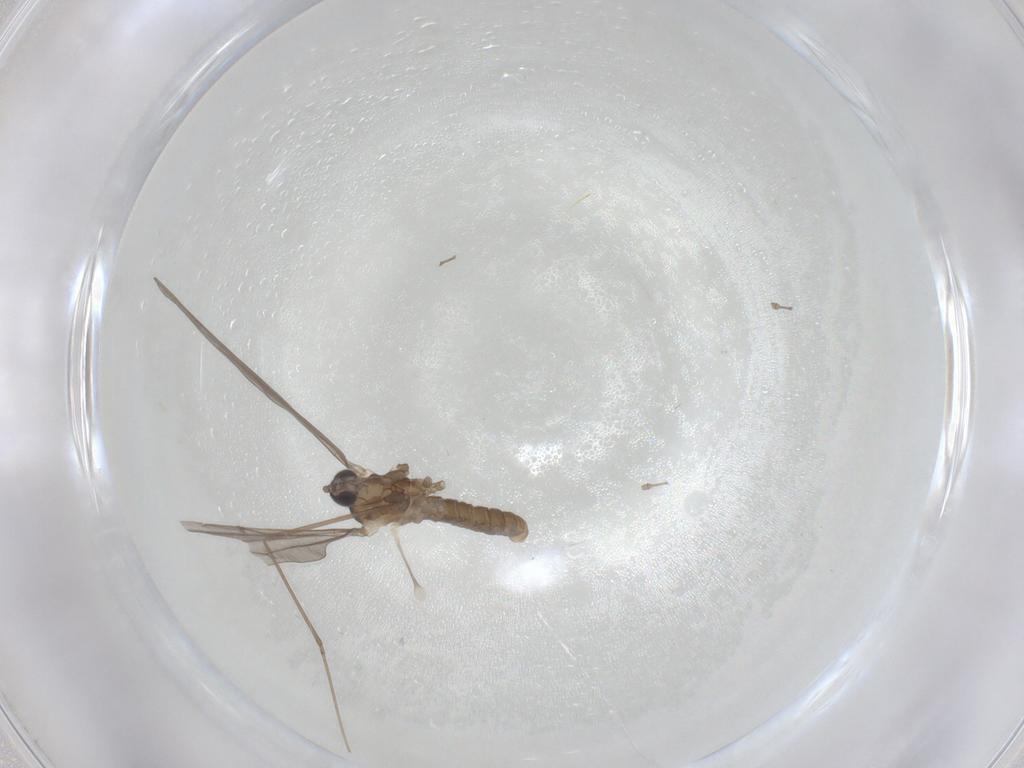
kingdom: Animalia
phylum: Arthropoda
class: Insecta
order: Diptera
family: Cecidomyiidae
